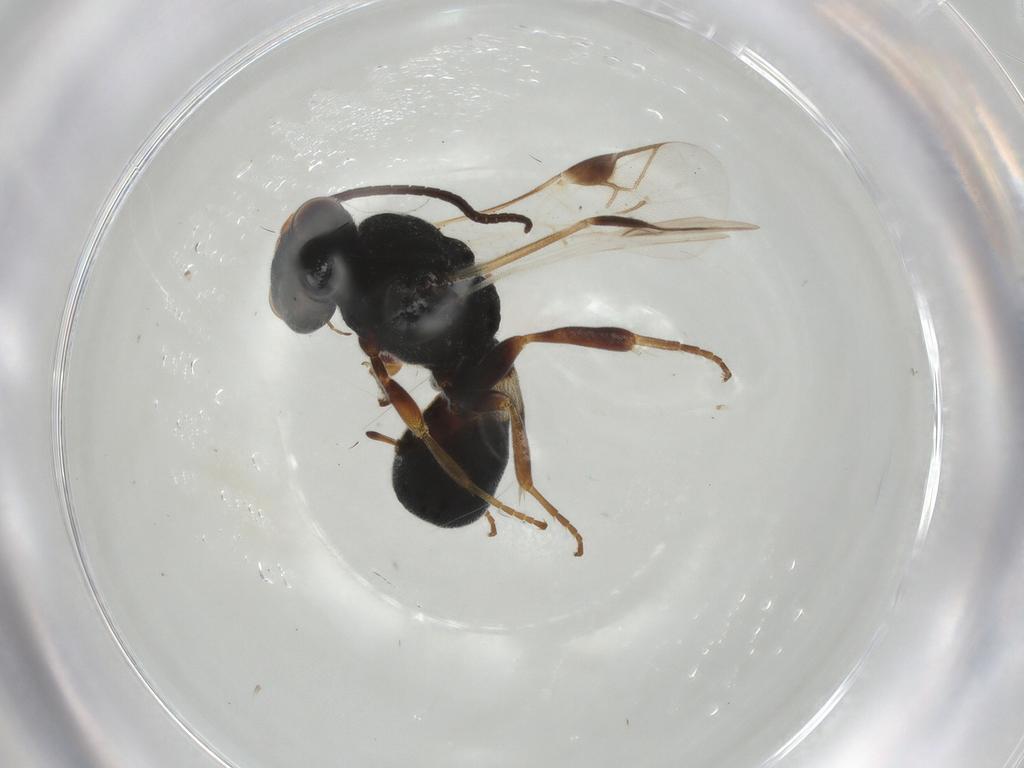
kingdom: Animalia
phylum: Arthropoda
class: Insecta
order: Hymenoptera
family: Braconidae
